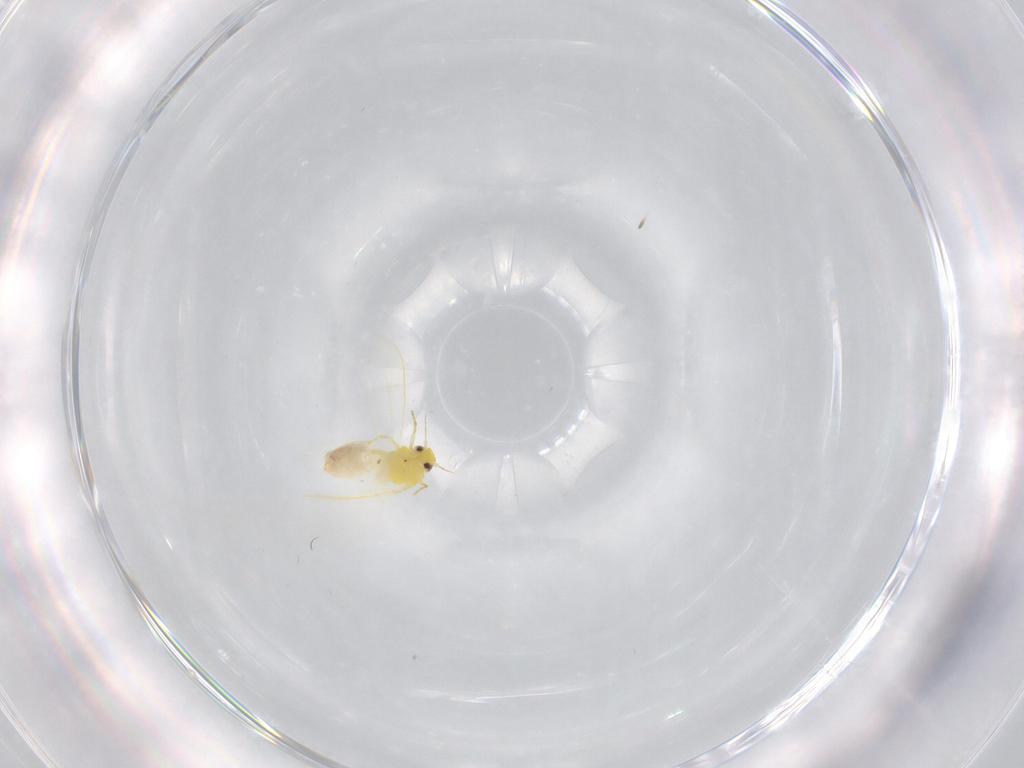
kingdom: Animalia
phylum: Arthropoda
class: Insecta
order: Hemiptera
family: Aleyrodidae
